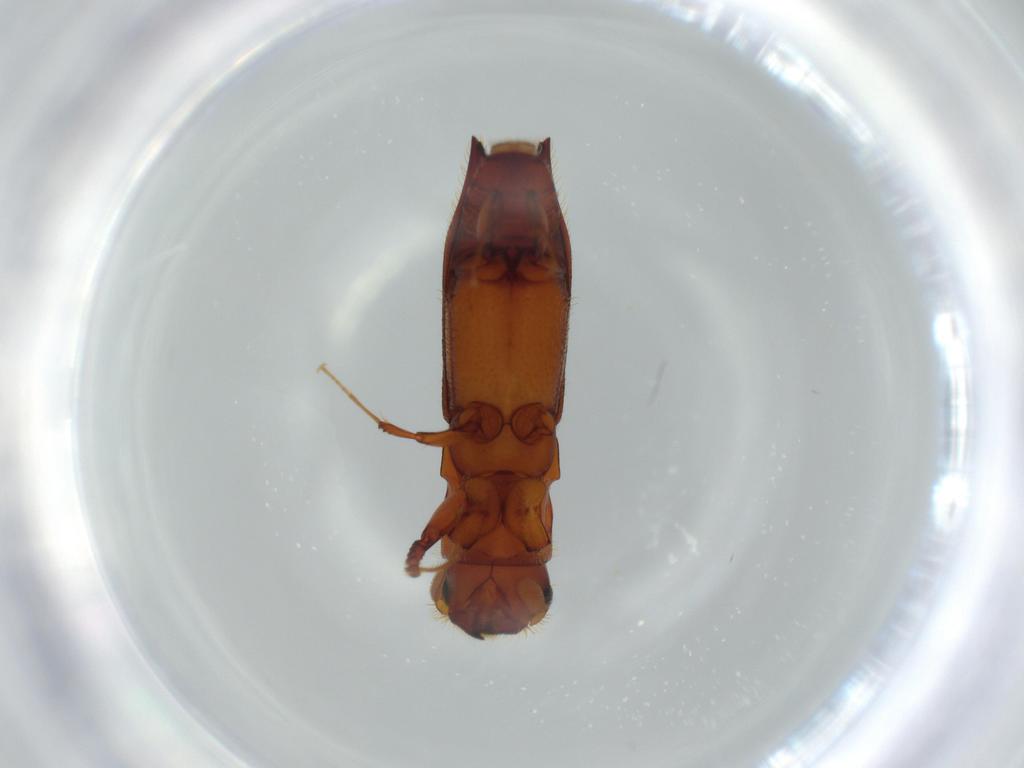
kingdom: Animalia
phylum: Arthropoda
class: Insecta
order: Coleoptera
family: Curculionidae
